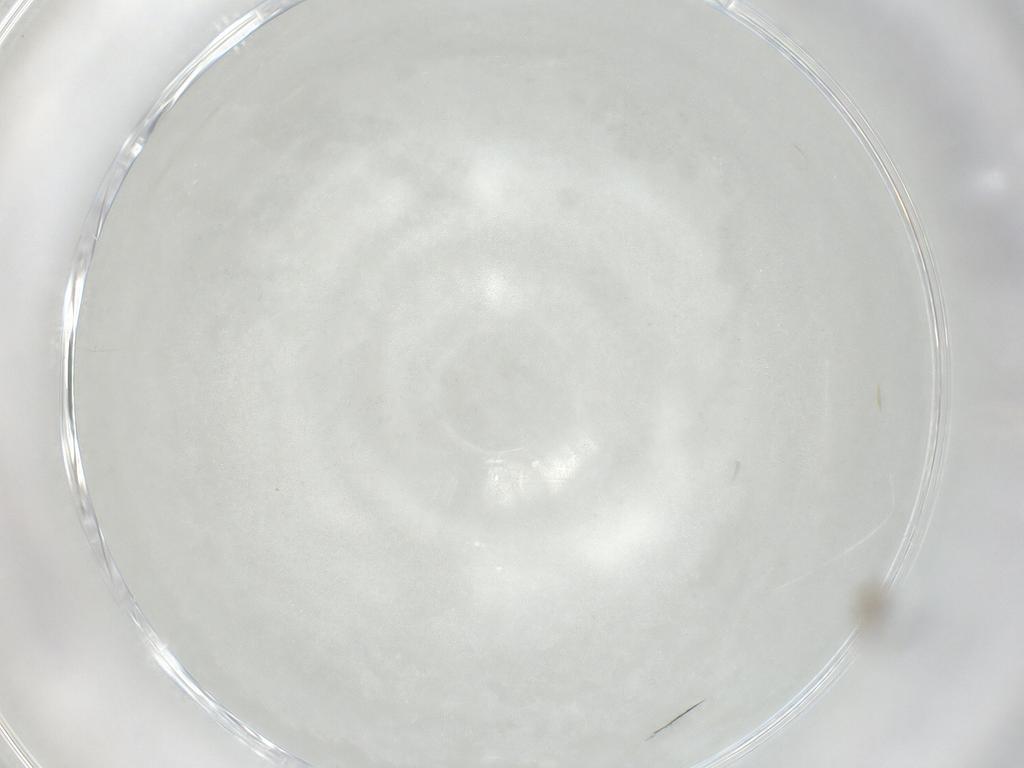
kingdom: Animalia
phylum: Arthropoda
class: Insecta
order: Hemiptera
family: Aphididae
